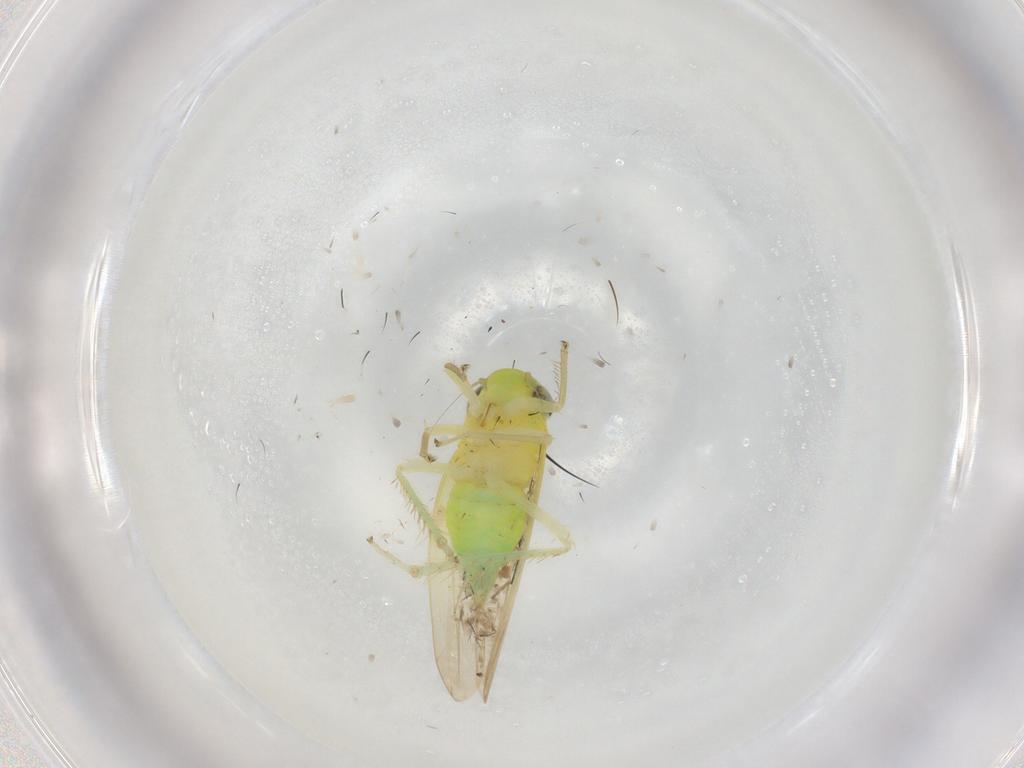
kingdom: Animalia
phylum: Arthropoda
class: Insecta
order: Hemiptera
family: Cicadellidae
